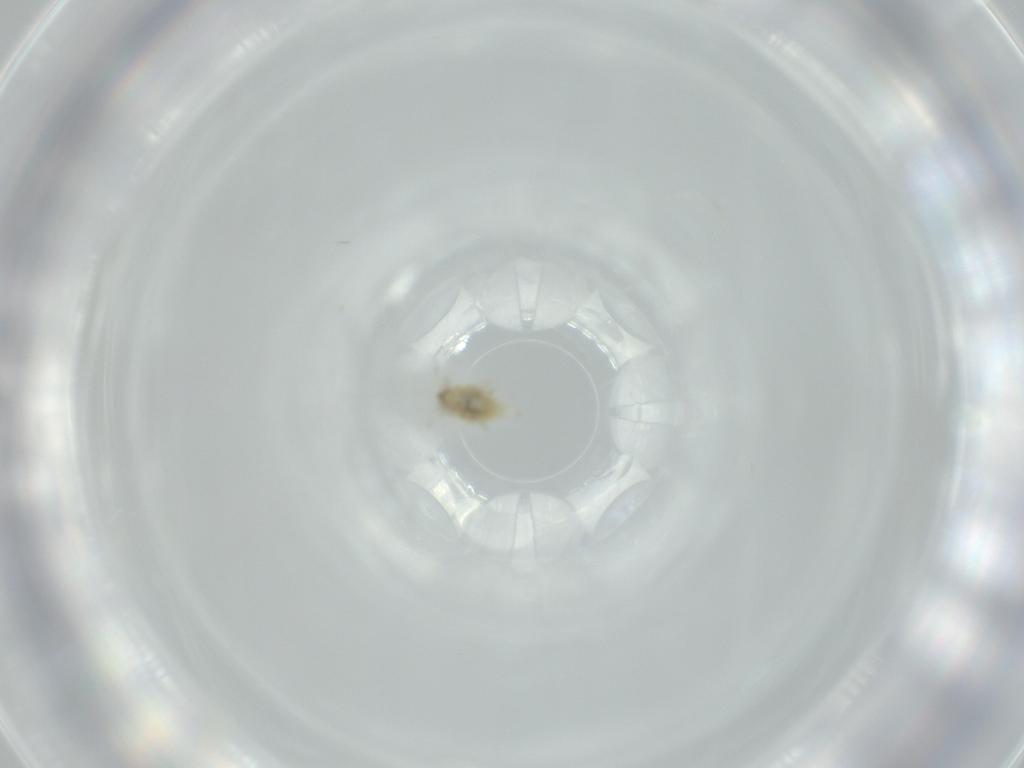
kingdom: Animalia
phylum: Arthropoda
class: Insecta
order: Neuroptera
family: Coniopterygidae
